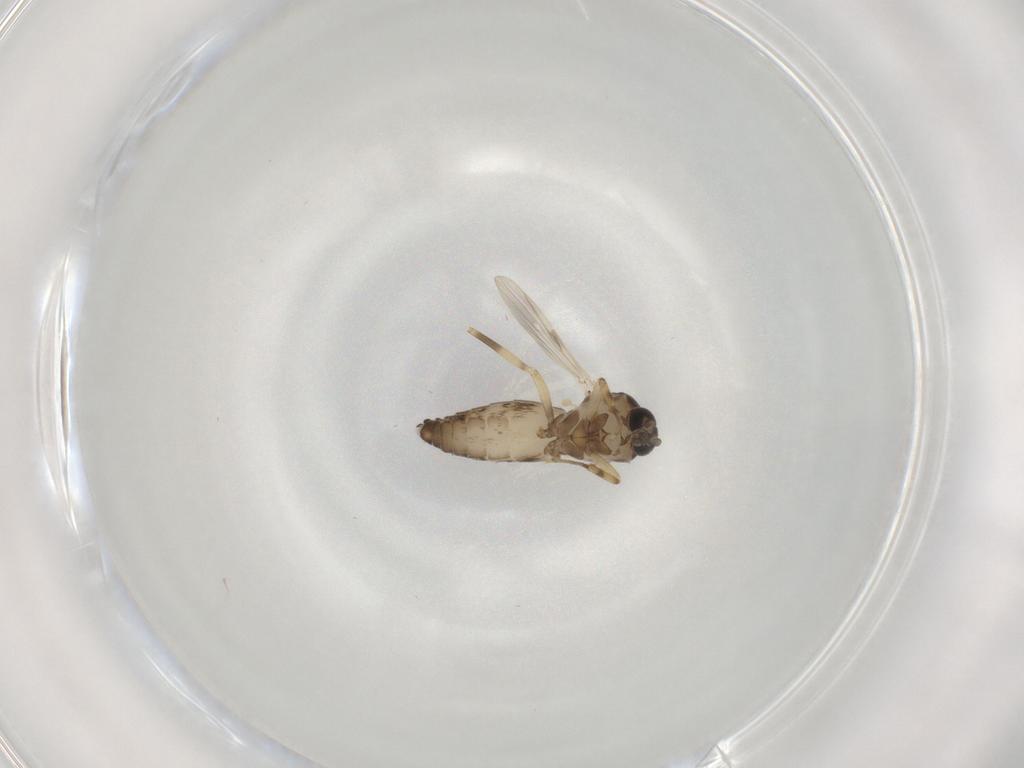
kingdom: Animalia
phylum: Arthropoda
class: Insecta
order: Diptera
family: Ceratopogonidae
